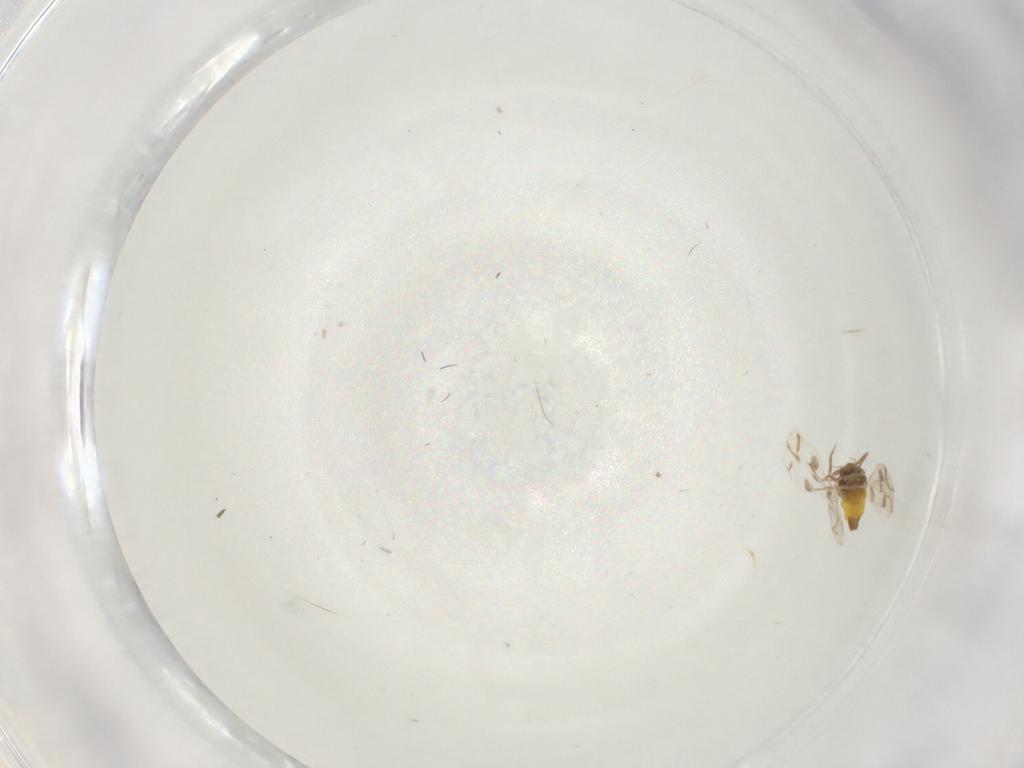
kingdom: Animalia
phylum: Arthropoda
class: Insecta
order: Hemiptera
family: Aleyrodidae
